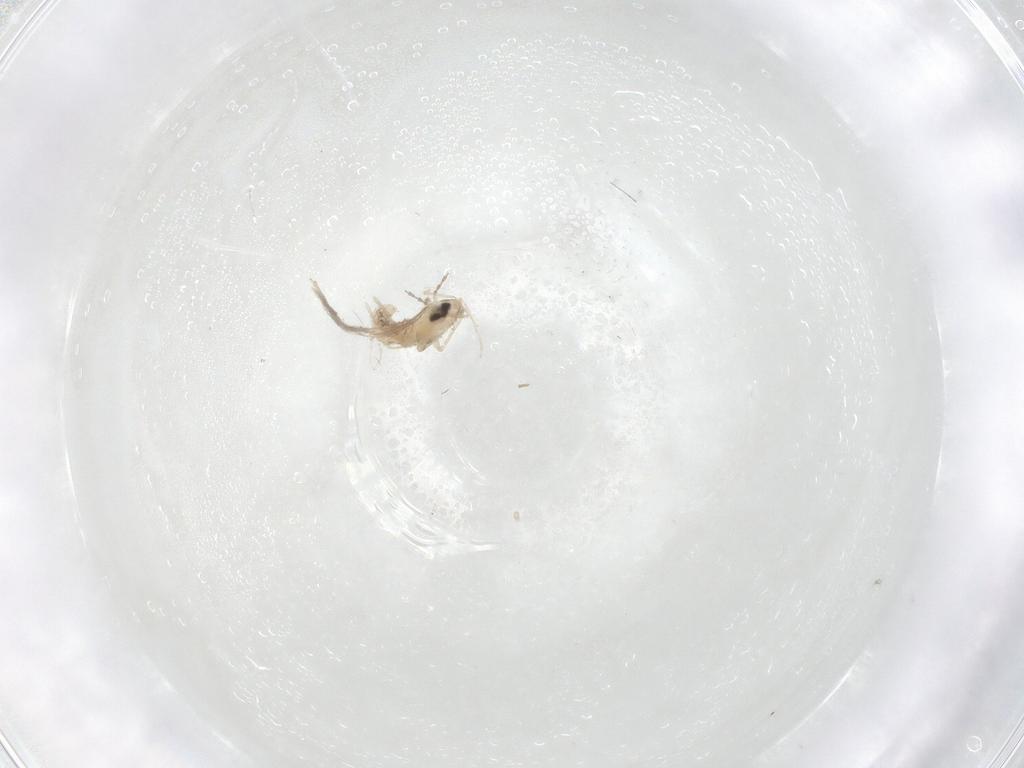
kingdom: Animalia
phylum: Arthropoda
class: Insecta
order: Diptera
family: Cecidomyiidae
